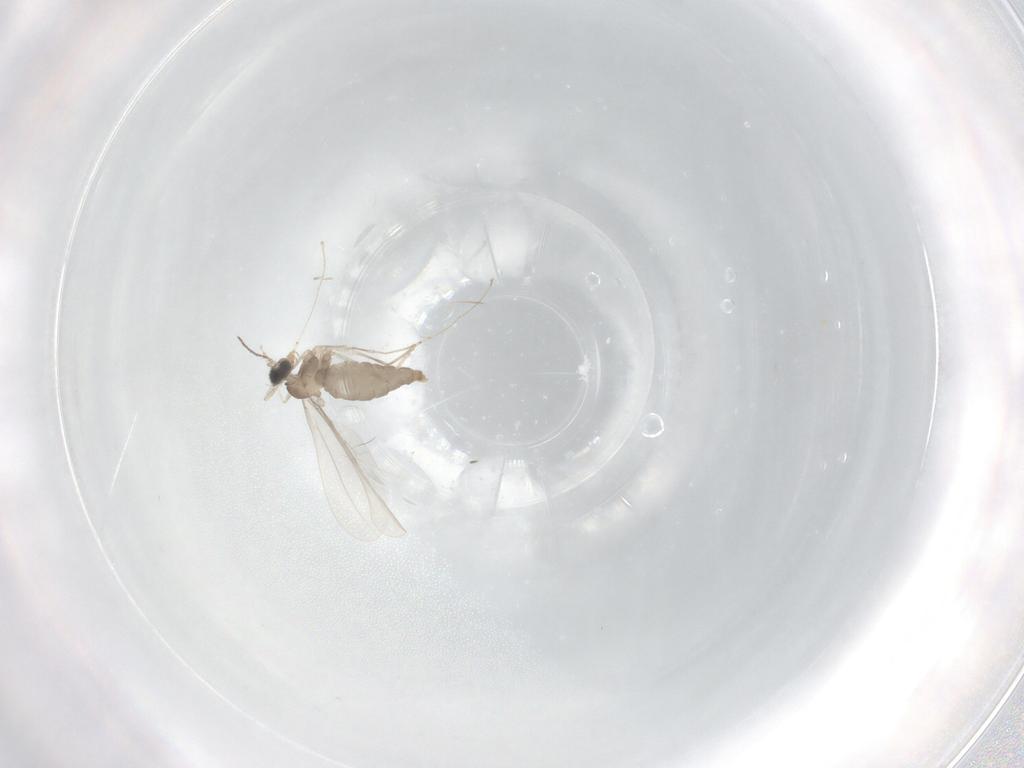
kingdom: Animalia
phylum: Arthropoda
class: Insecta
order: Diptera
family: Cecidomyiidae
